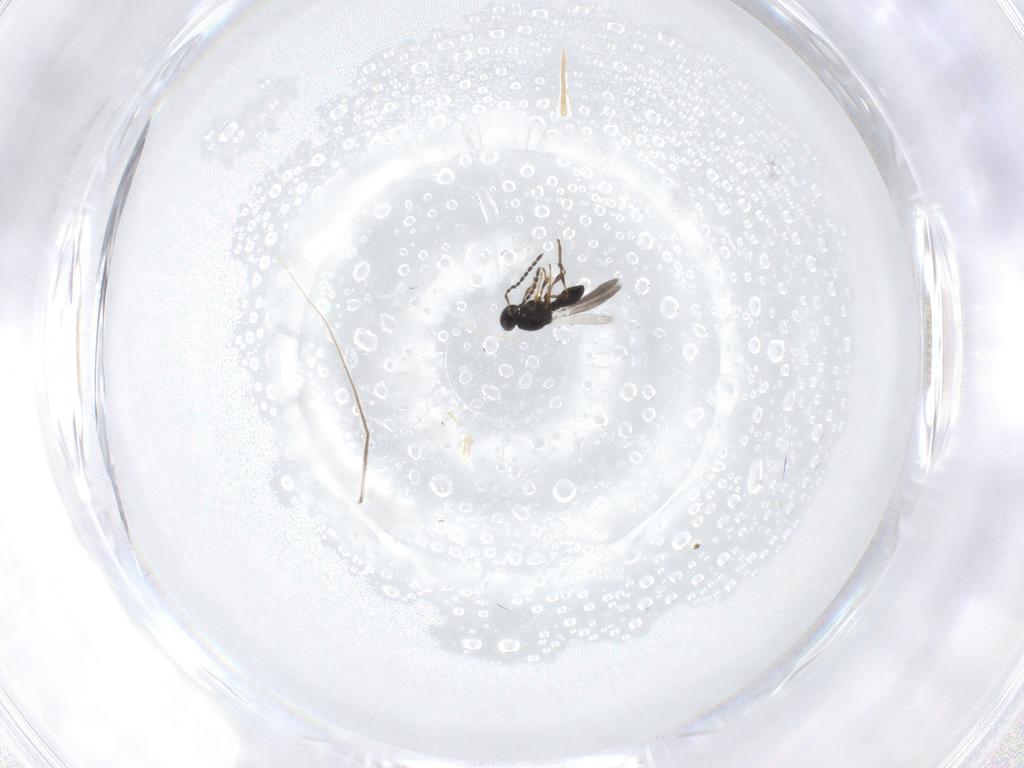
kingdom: Animalia
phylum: Arthropoda
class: Insecta
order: Hymenoptera
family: Platygastridae
